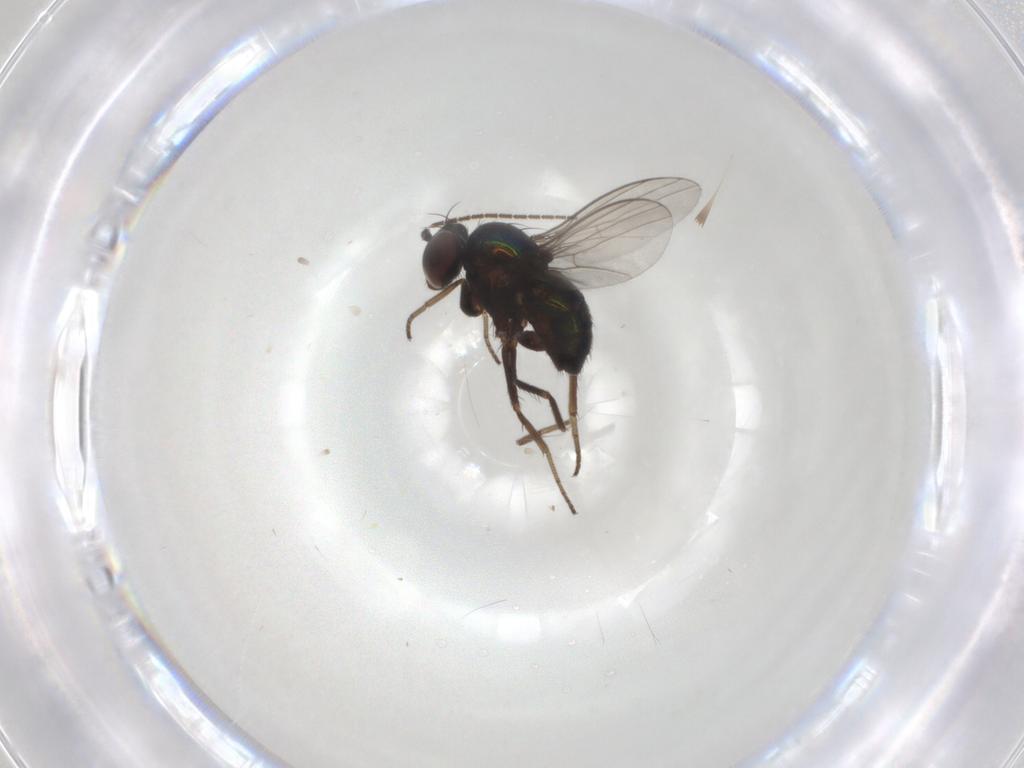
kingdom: Animalia
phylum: Arthropoda
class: Insecta
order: Diptera
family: Dolichopodidae
